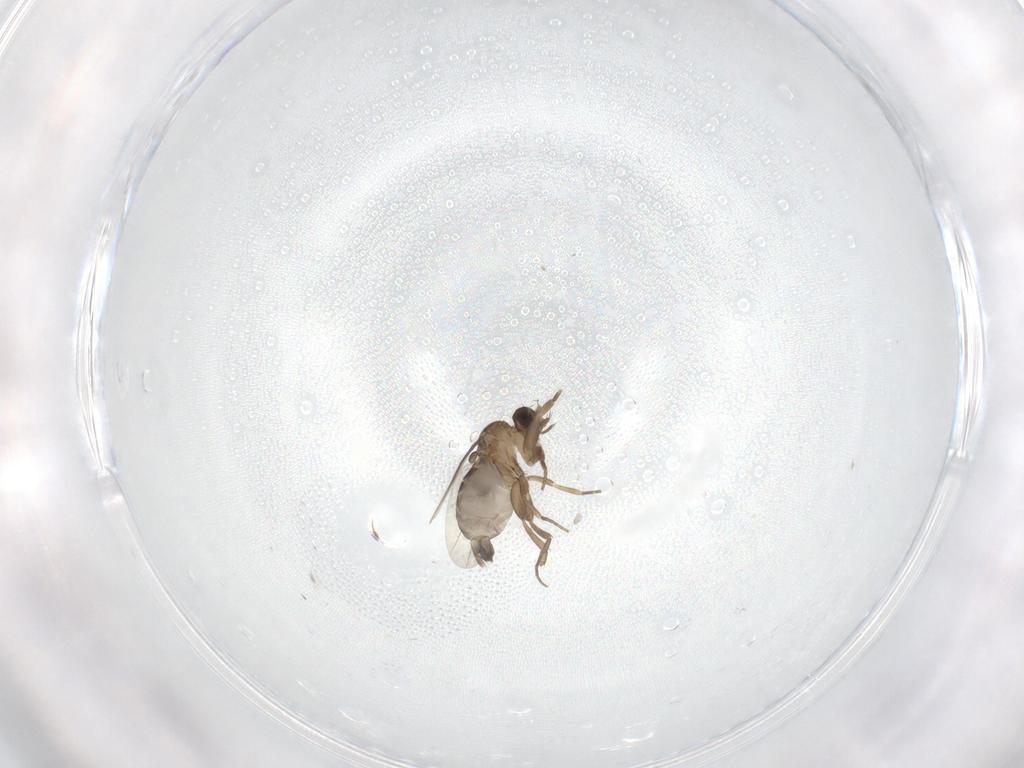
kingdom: Animalia
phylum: Arthropoda
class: Insecta
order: Diptera
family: Phoridae
